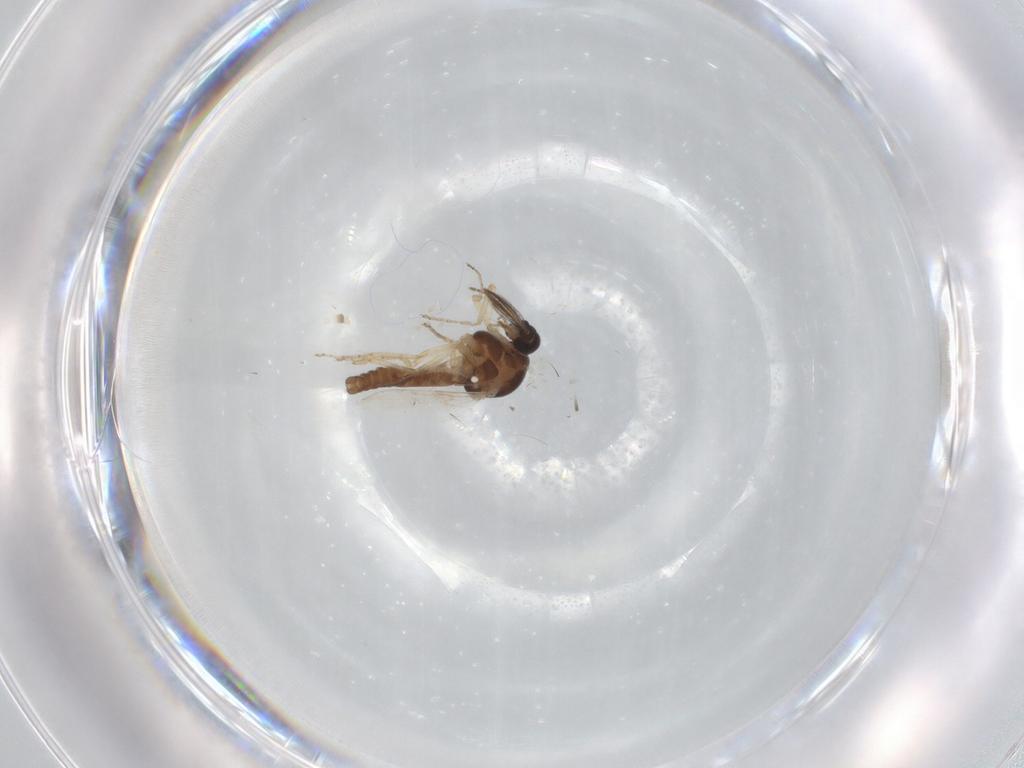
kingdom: Animalia
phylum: Arthropoda
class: Insecta
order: Diptera
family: Ceratopogonidae
